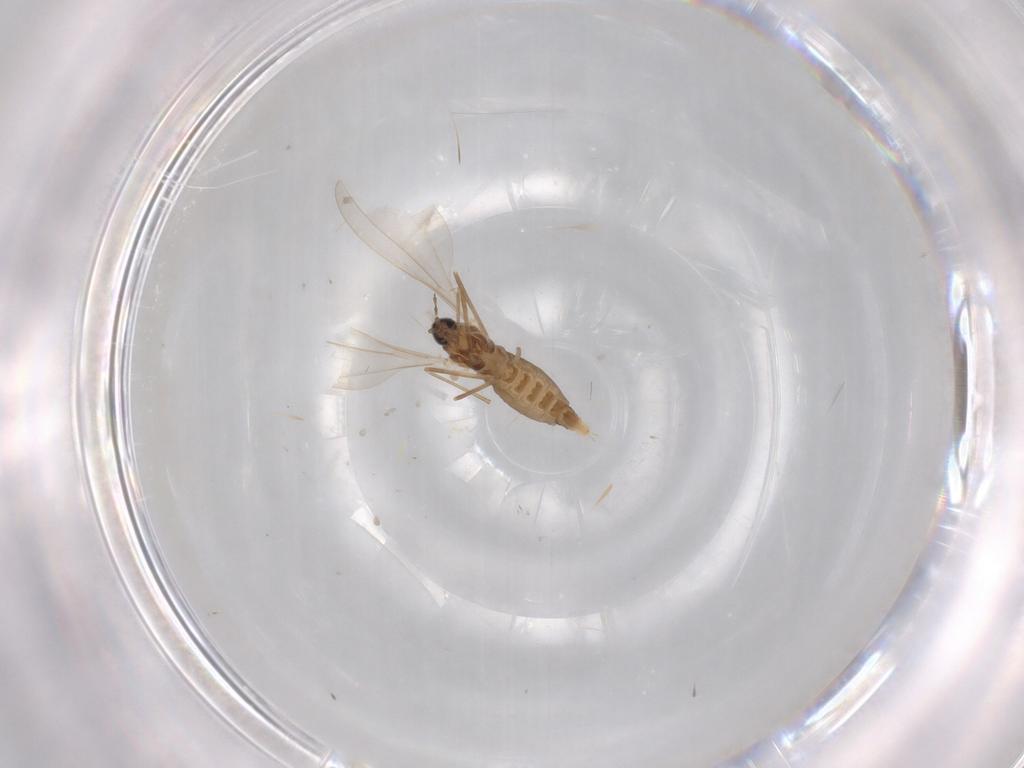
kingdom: Animalia
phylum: Arthropoda
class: Insecta
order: Diptera
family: Cecidomyiidae
